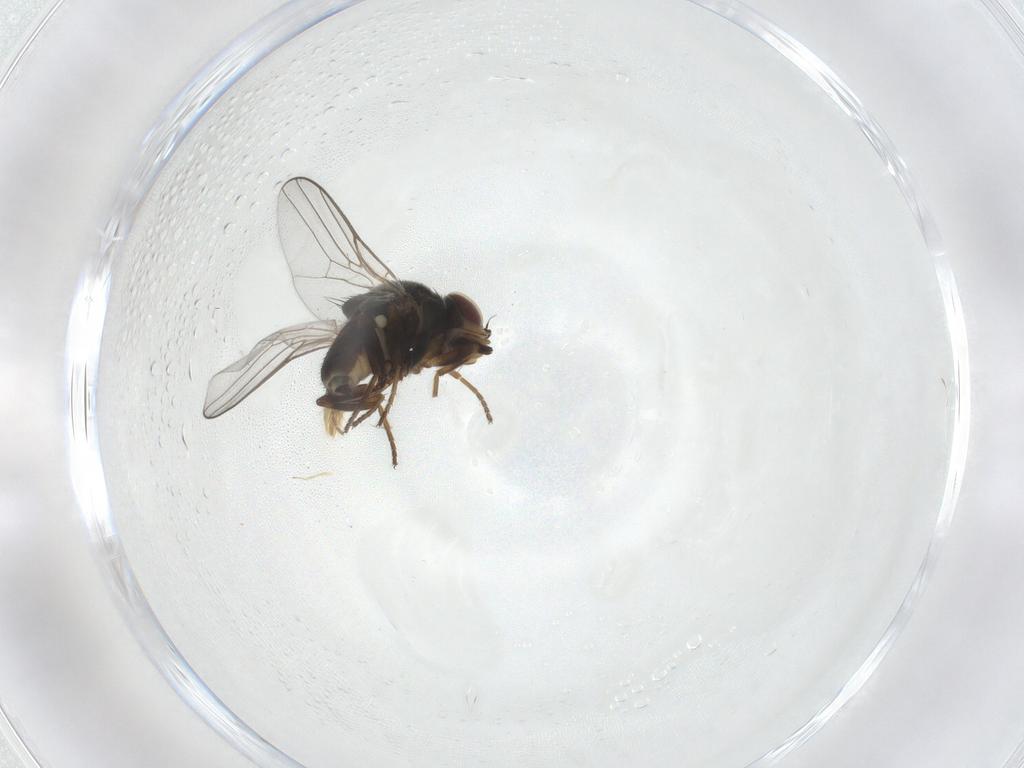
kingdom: Animalia
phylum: Arthropoda
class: Insecta
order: Diptera
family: Chloropidae
